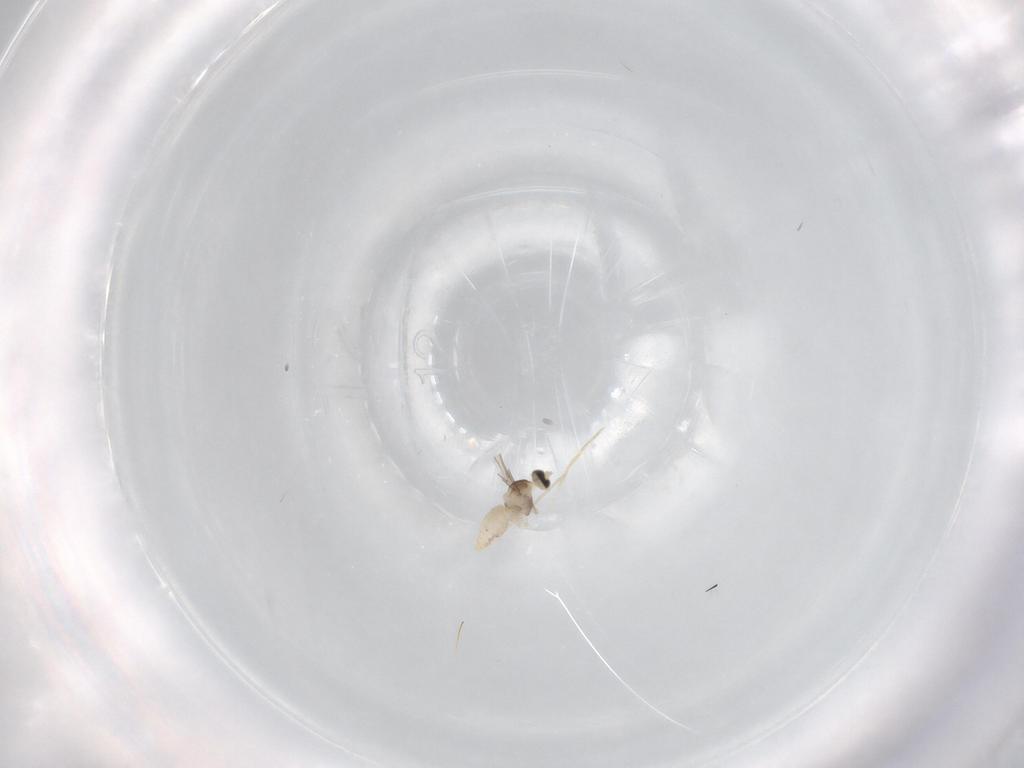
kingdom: Animalia
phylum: Arthropoda
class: Insecta
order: Diptera
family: Cecidomyiidae
